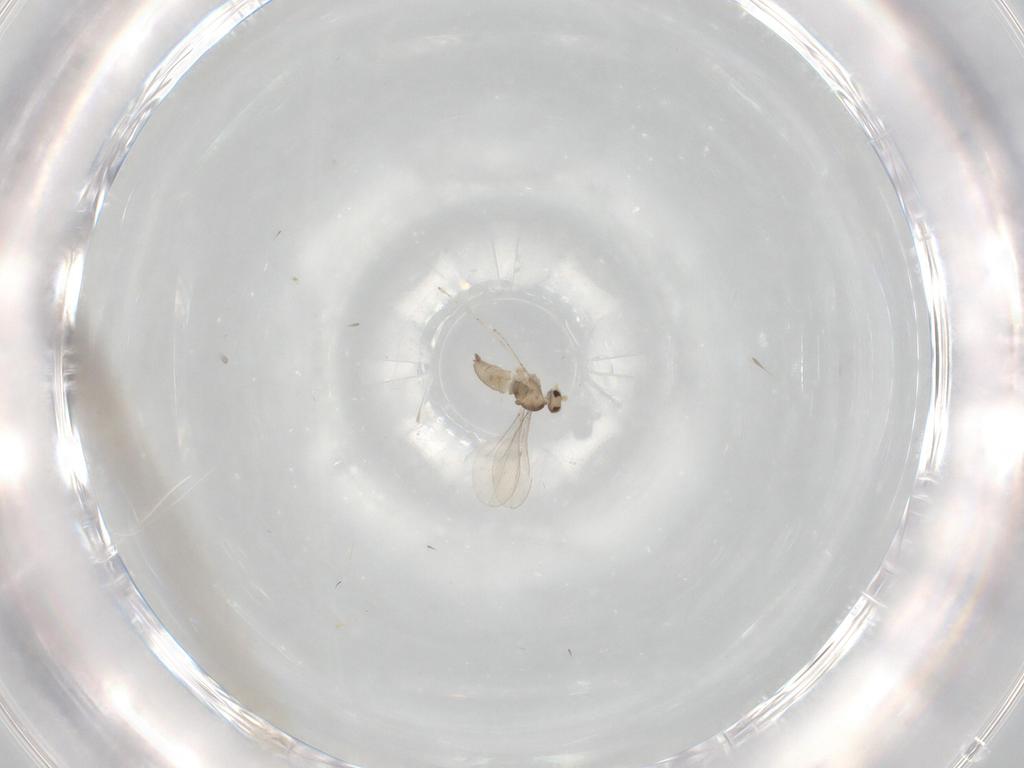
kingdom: Animalia
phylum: Arthropoda
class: Insecta
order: Diptera
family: Limoniidae
